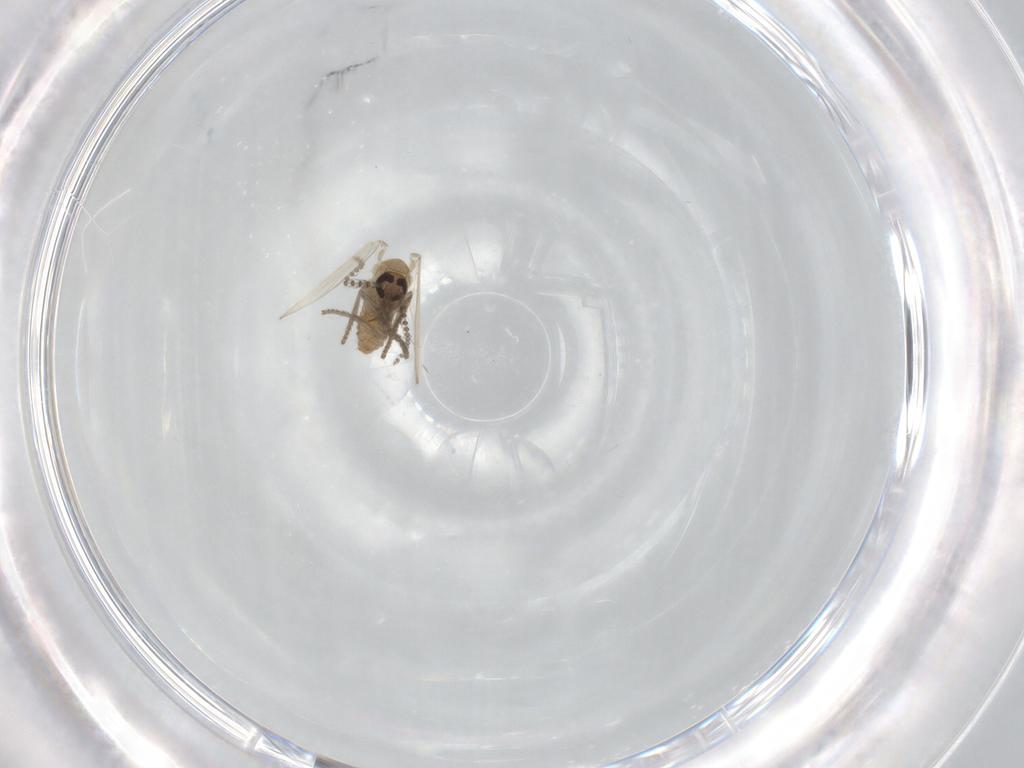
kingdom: Animalia
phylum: Arthropoda
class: Insecta
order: Diptera
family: Psychodidae
